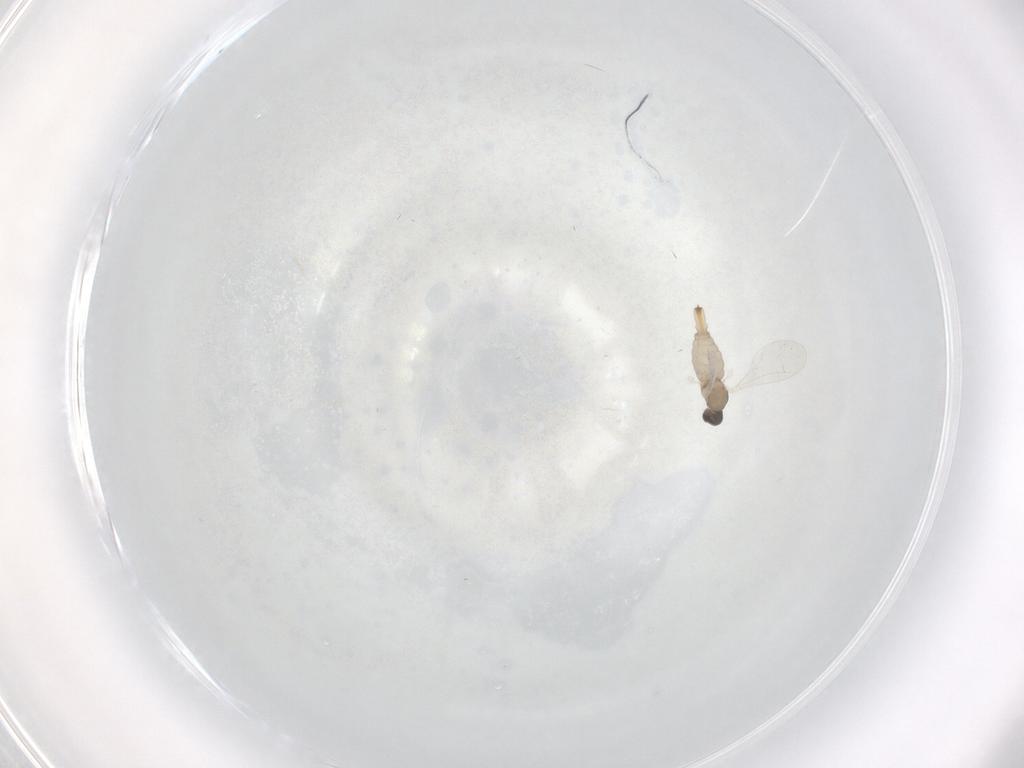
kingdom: Animalia
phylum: Arthropoda
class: Insecta
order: Diptera
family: Cecidomyiidae
